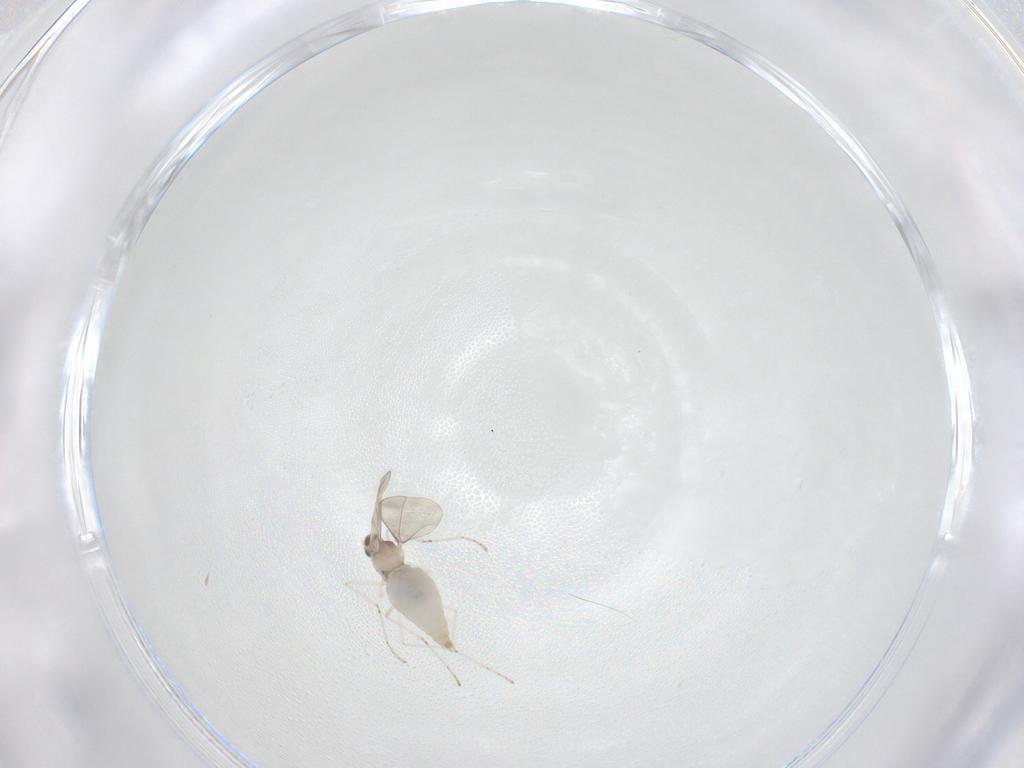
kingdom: Animalia
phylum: Arthropoda
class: Insecta
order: Diptera
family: Cecidomyiidae
